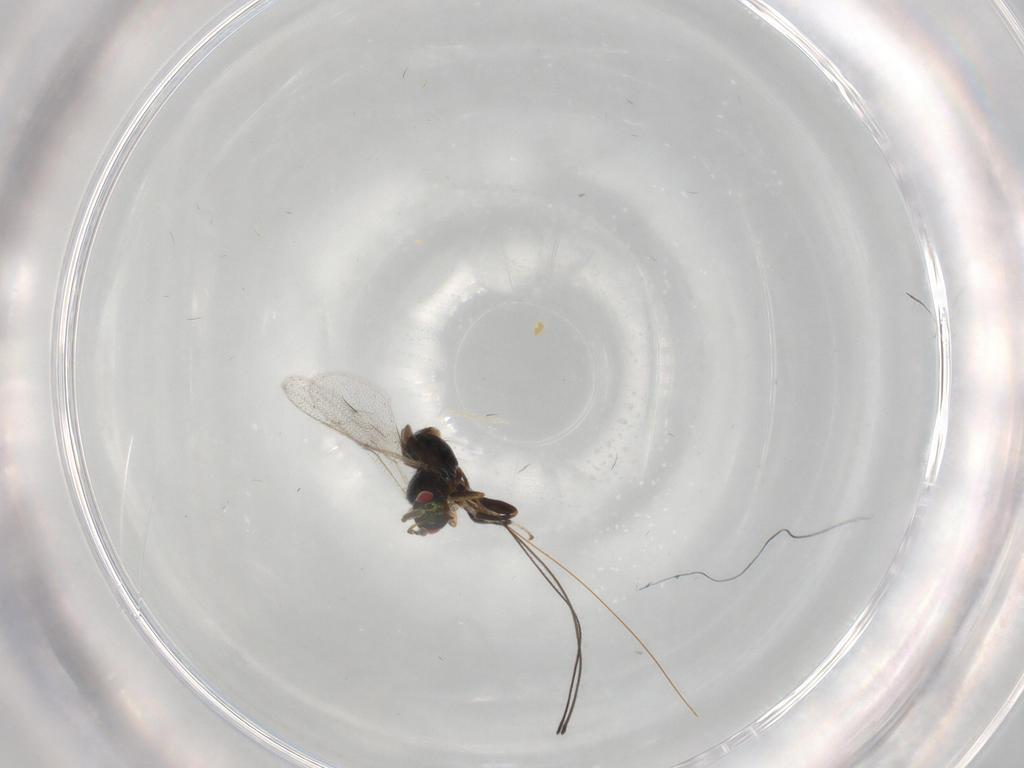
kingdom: Animalia
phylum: Arthropoda
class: Insecta
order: Hymenoptera
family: Torymidae
